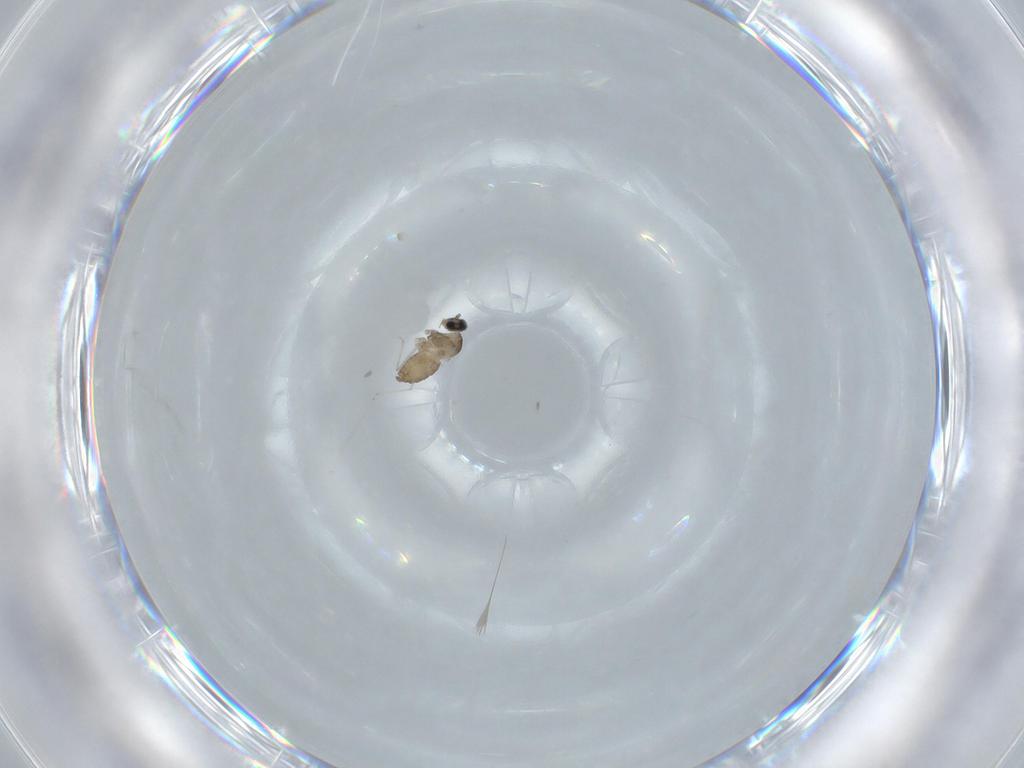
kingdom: Animalia
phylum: Arthropoda
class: Insecta
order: Diptera
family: Cecidomyiidae
